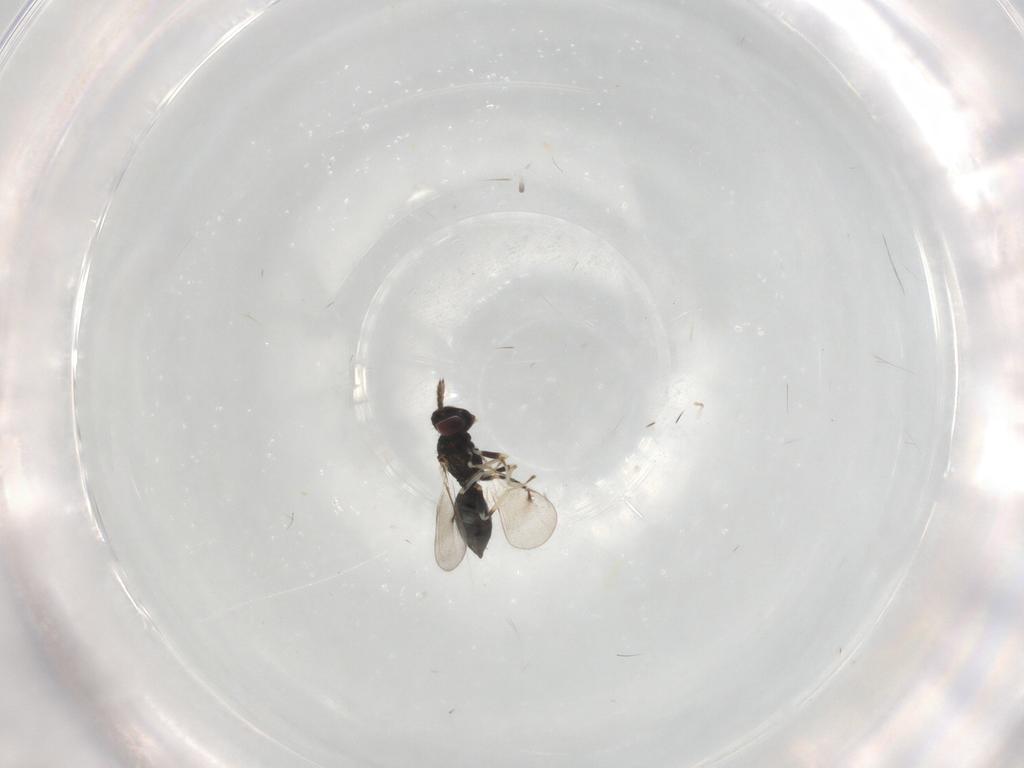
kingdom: Animalia
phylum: Arthropoda
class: Insecta
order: Hymenoptera
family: Eulophidae
